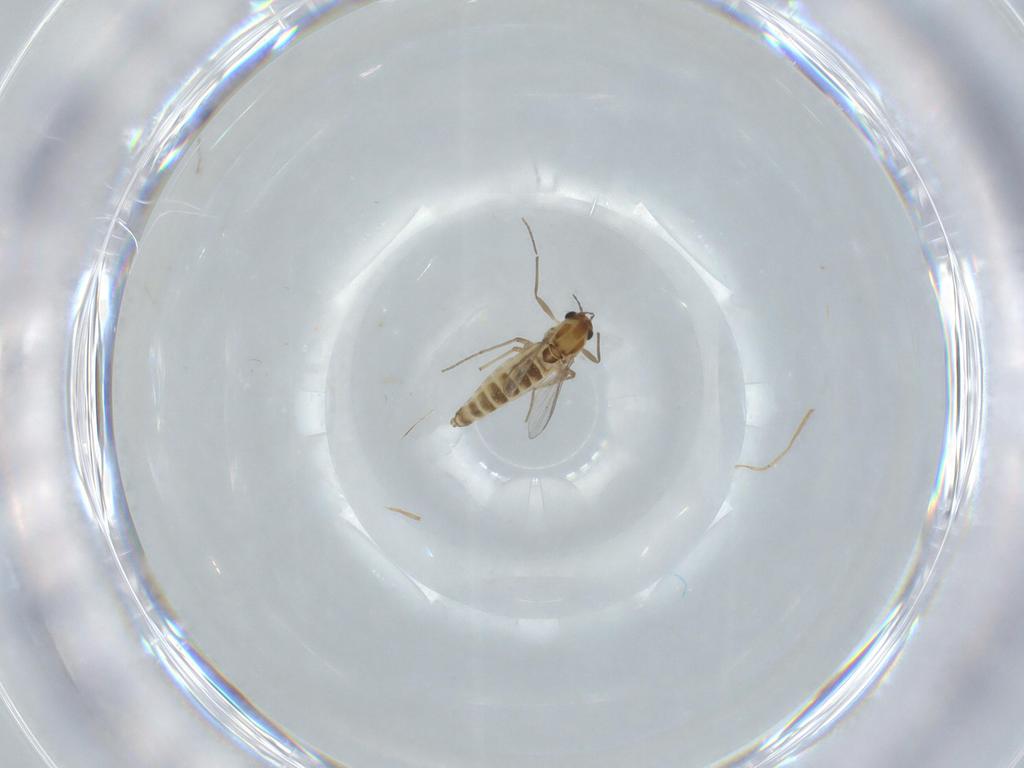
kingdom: Animalia
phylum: Arthropoda
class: Insecta
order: Diptera
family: Chironomidae
